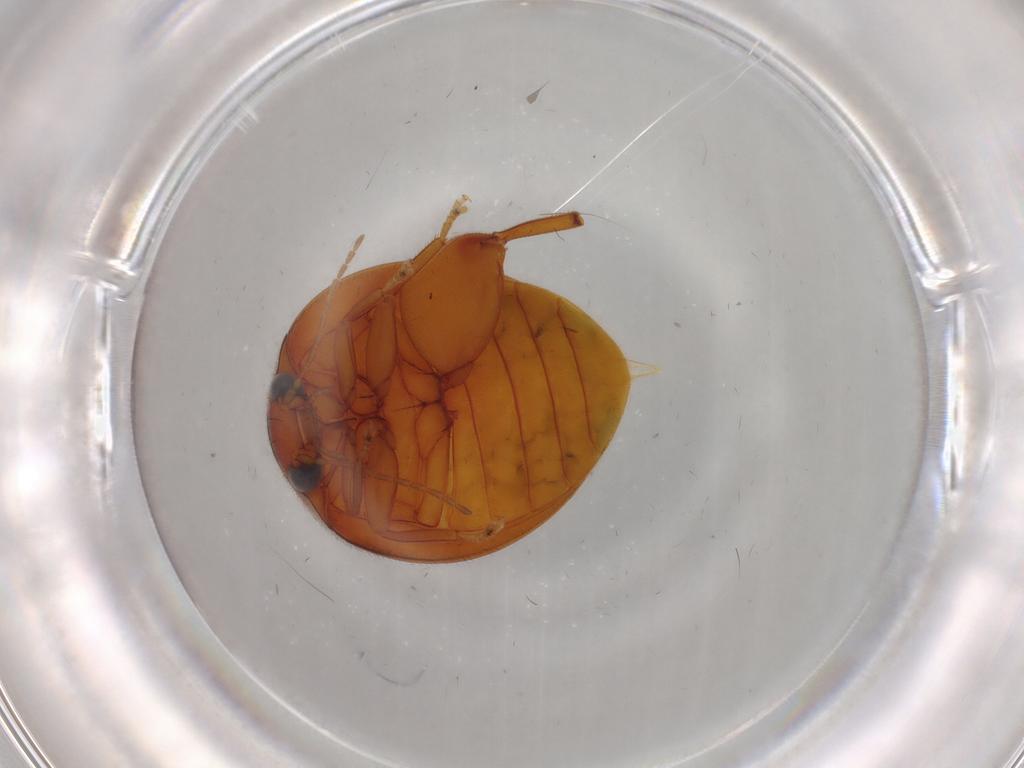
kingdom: Animalia
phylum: Arthropoda
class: Insecta
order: Coleoptera
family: Scirtidae
